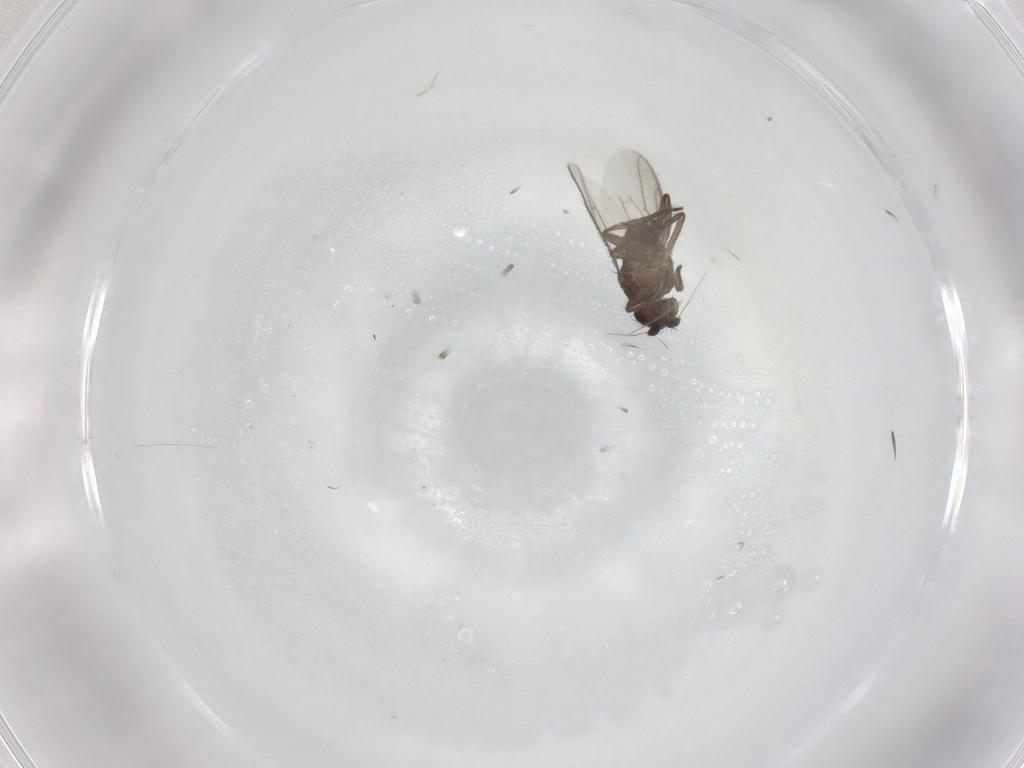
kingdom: Animalia
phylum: Arthropoda
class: Insecta
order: Diptera
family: Sphaeroceridae
